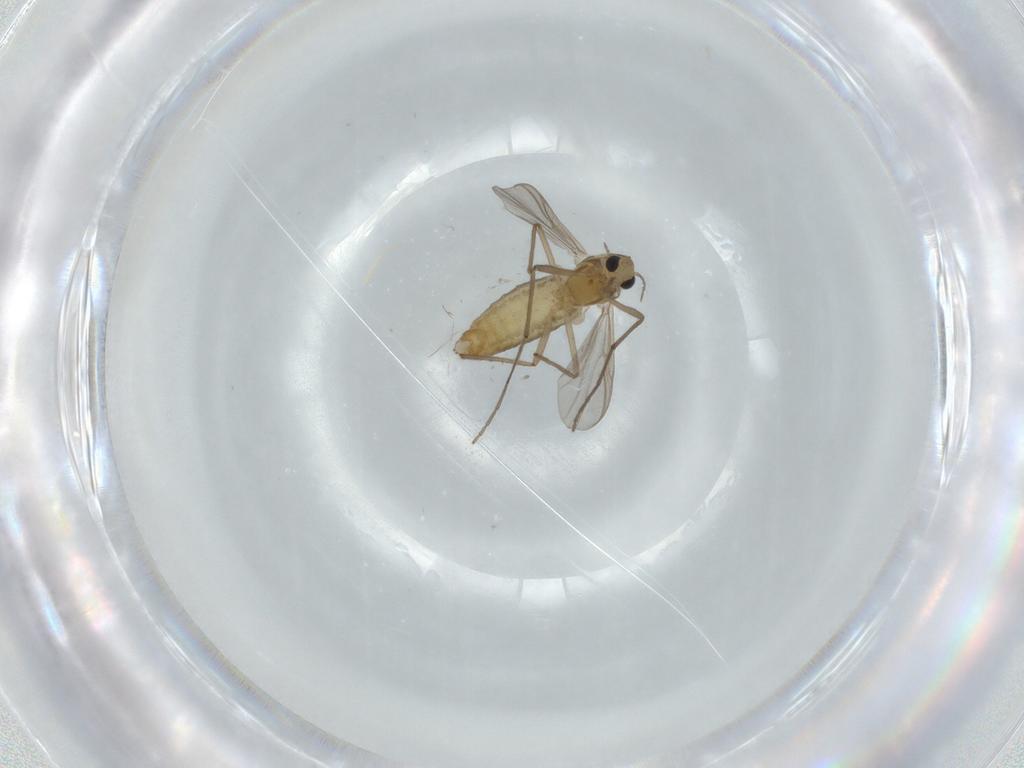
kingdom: Animalia
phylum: Arthropoda
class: Insecta
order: Diptera
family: Chironomidae
